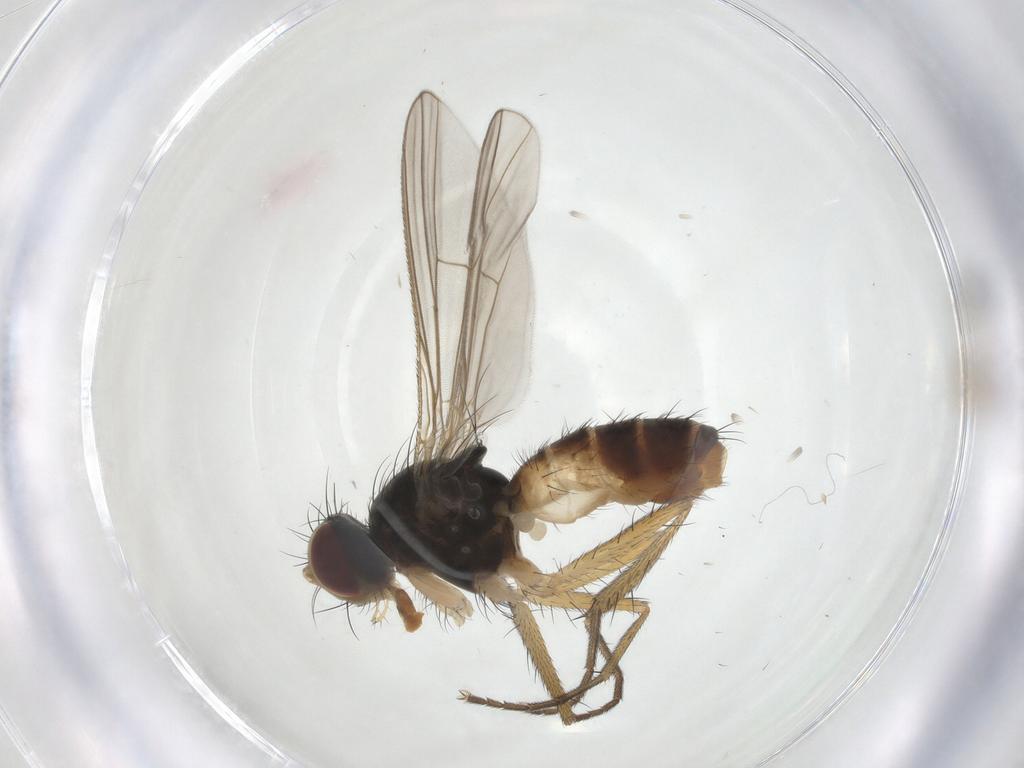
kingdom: Animalia
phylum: Arthropoda
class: Insecta
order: Diptera
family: Muscidae
